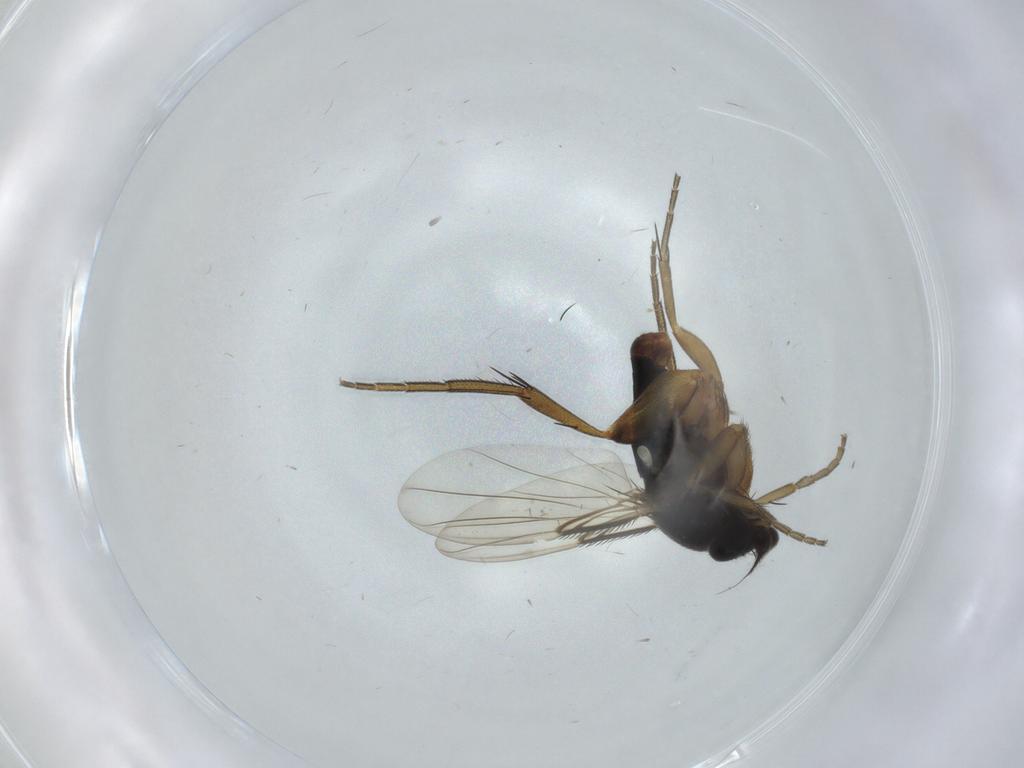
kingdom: Animalia
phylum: Arthropoda
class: Insecta
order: Diptera
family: Phoridae
